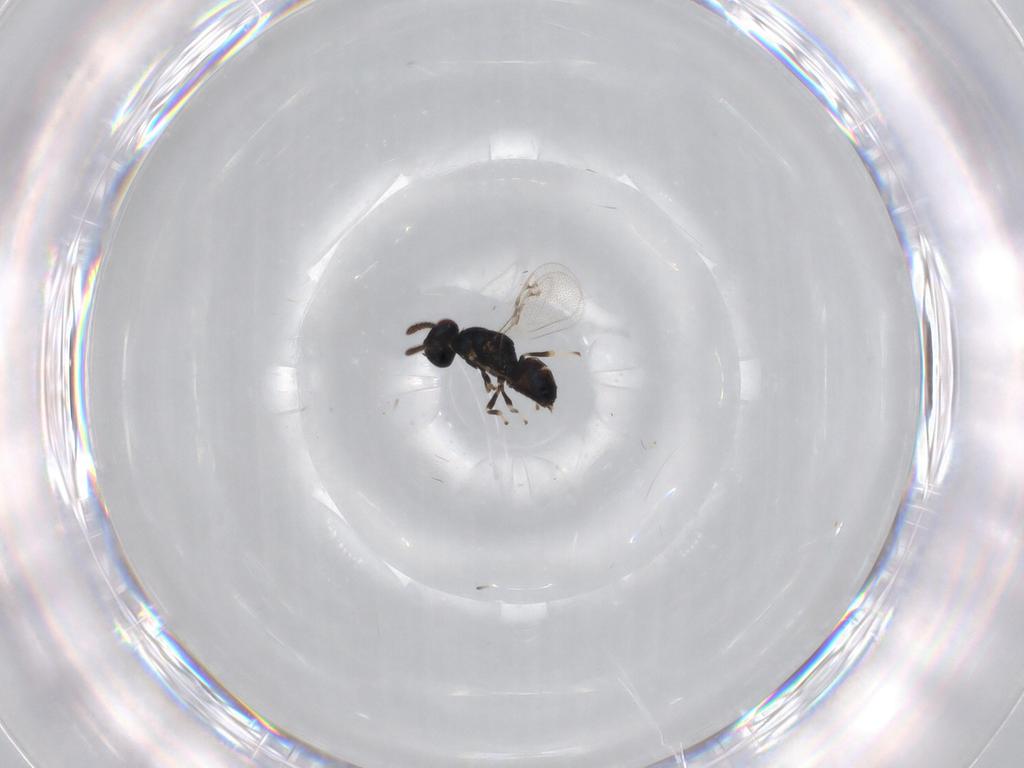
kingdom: Animalia
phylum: Arthropoda
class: Insecta
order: Hymenoptera
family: Pteromalidae
